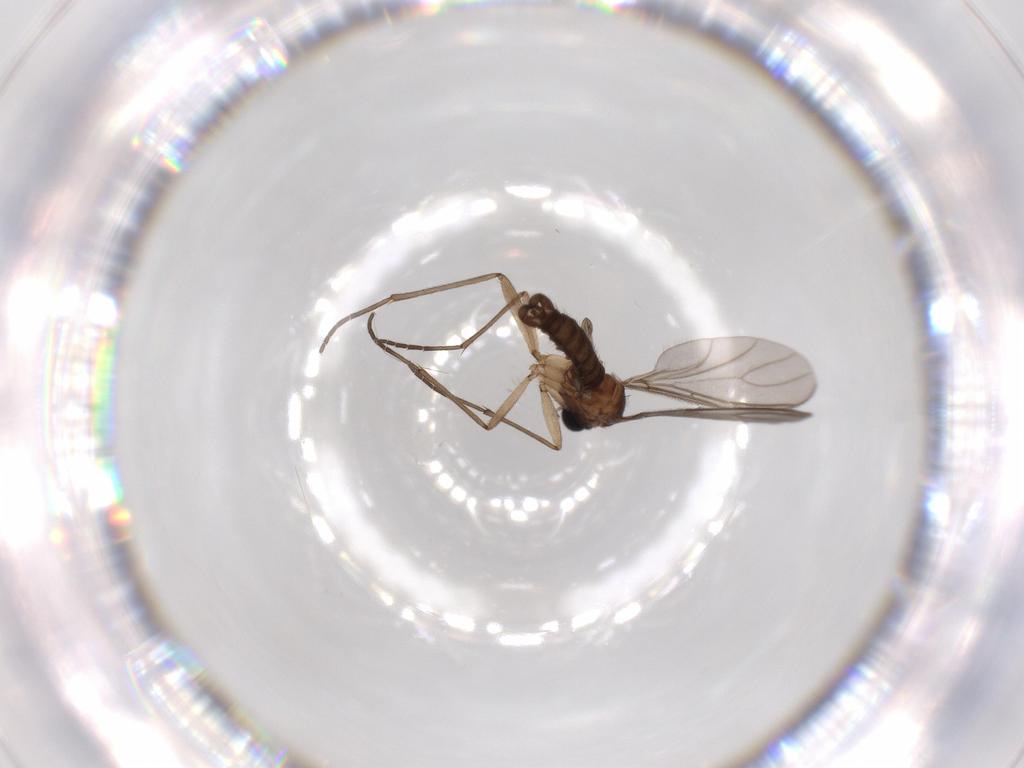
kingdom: Animalia
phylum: Arthropoda
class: Insecta
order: Diptera
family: Sciaridae
